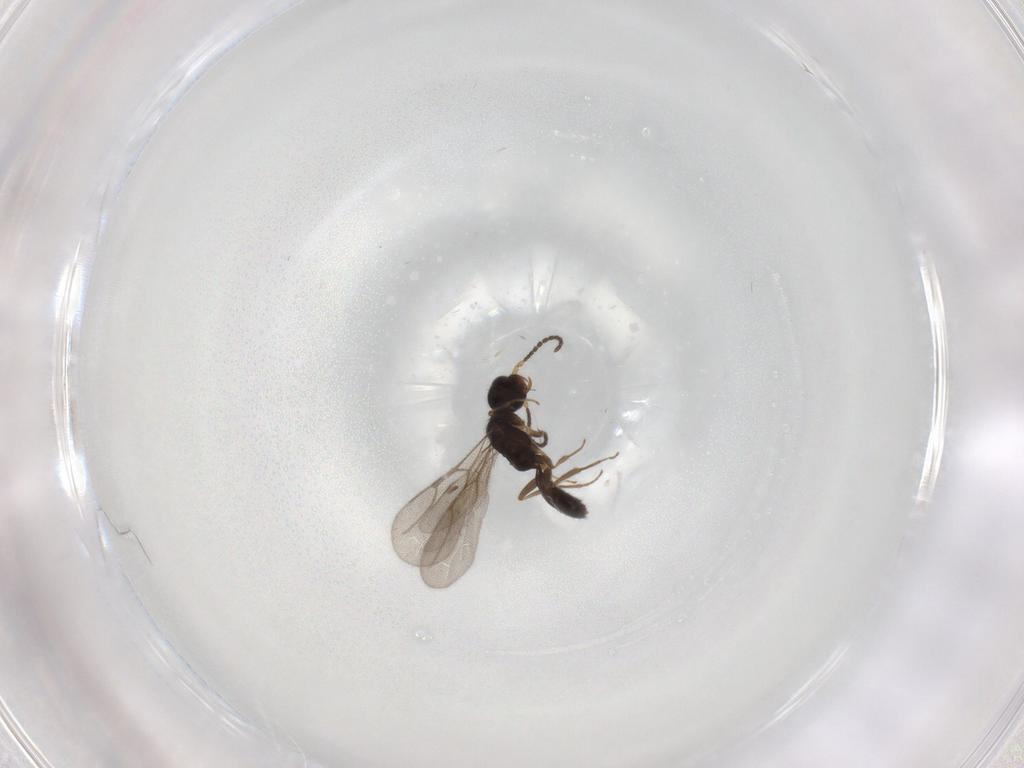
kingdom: Animalia
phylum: Arthropoda
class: Insecta
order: Hymenoptera
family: Bethylidae
